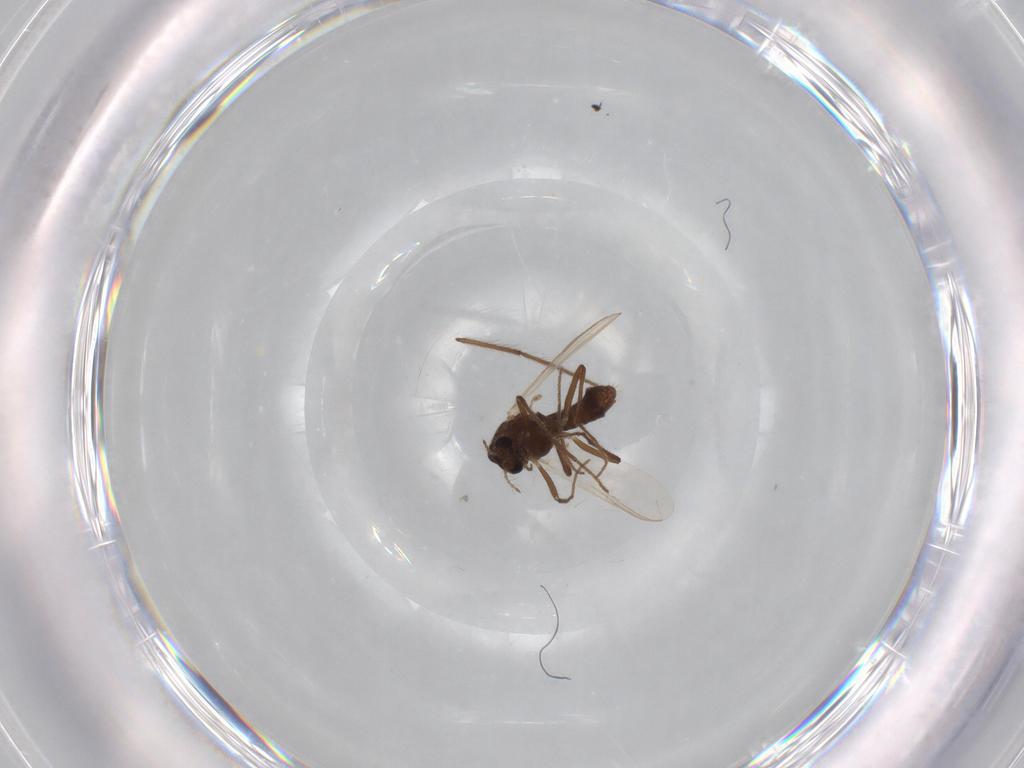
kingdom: Animalia
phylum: Arthropoda
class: Insecta
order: Diptera
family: Chironomidae
